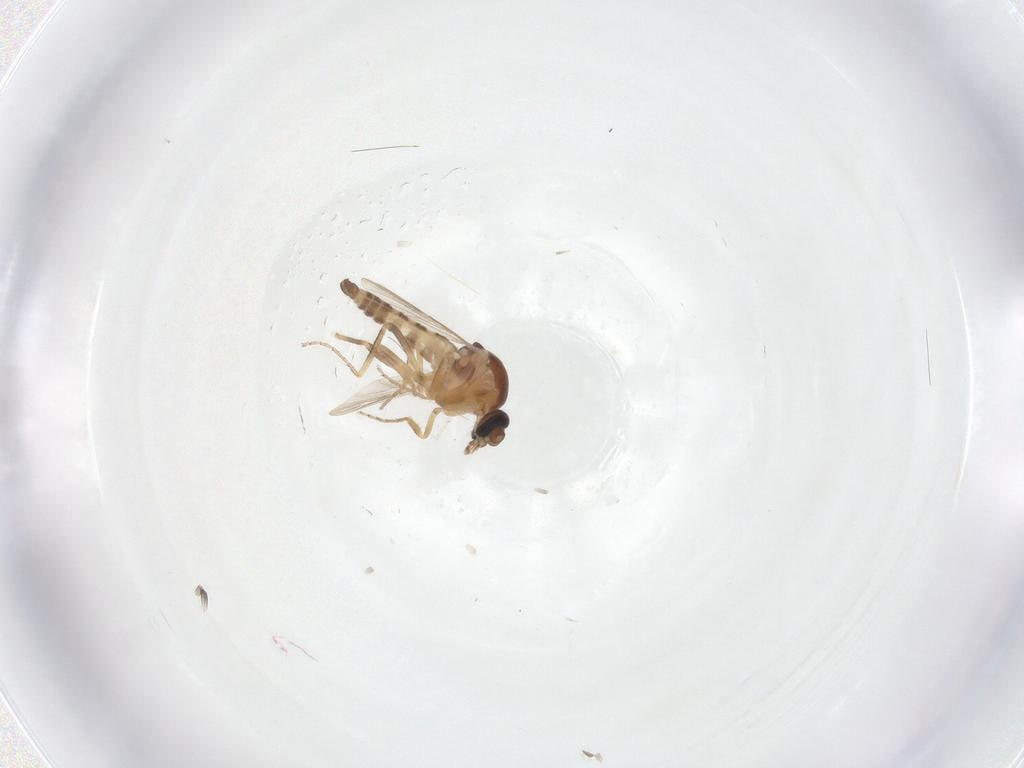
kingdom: Animalia
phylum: Arthropoda
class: Insecta
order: Diptera
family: Ceratopogonidae
